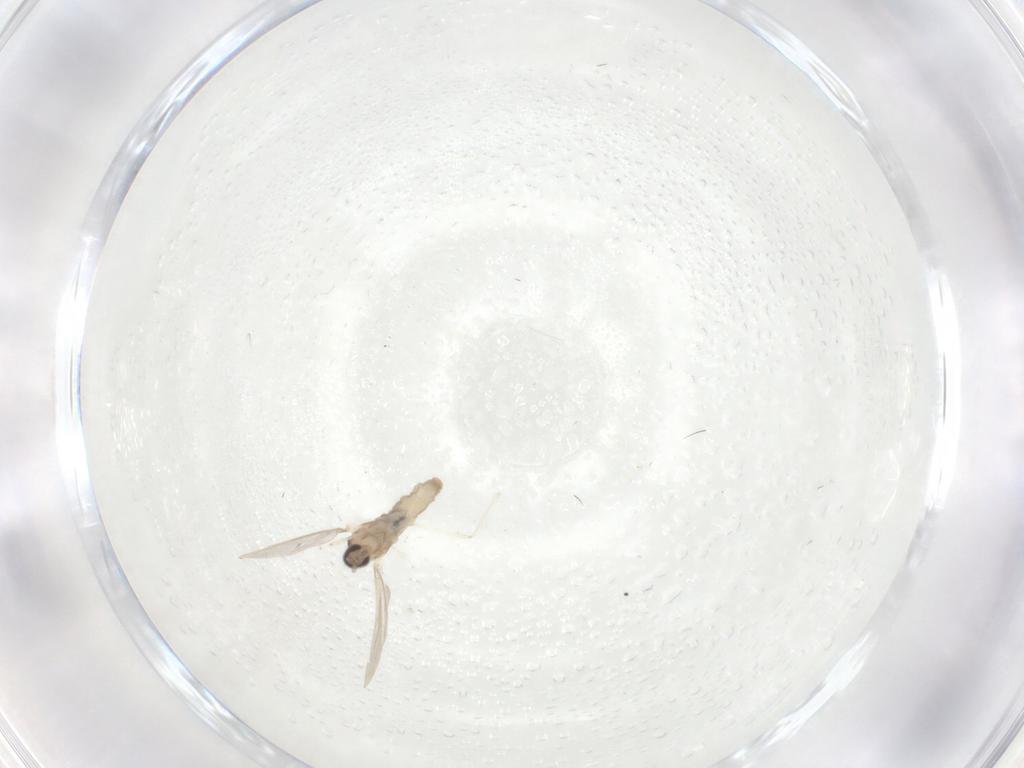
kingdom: Animalia
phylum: Arthropoda
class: Insecta
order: Diptera
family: Cecidomyiidae
